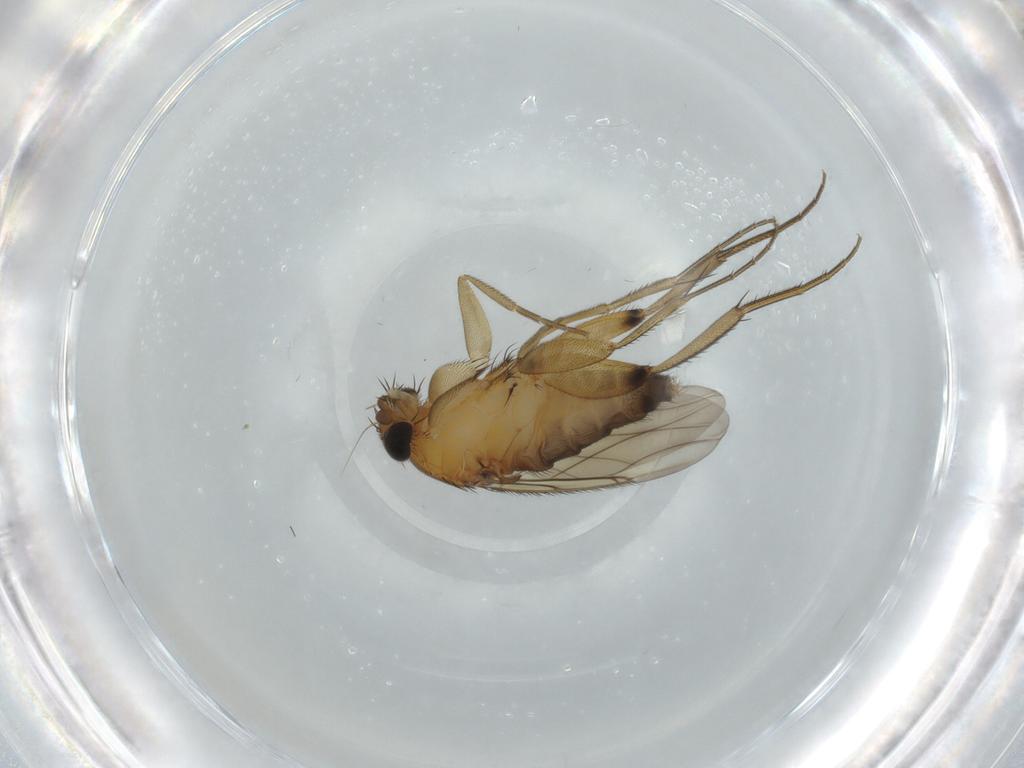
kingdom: Animalia
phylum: Arthropoda
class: Insecta
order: Diptera
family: Phoridae
